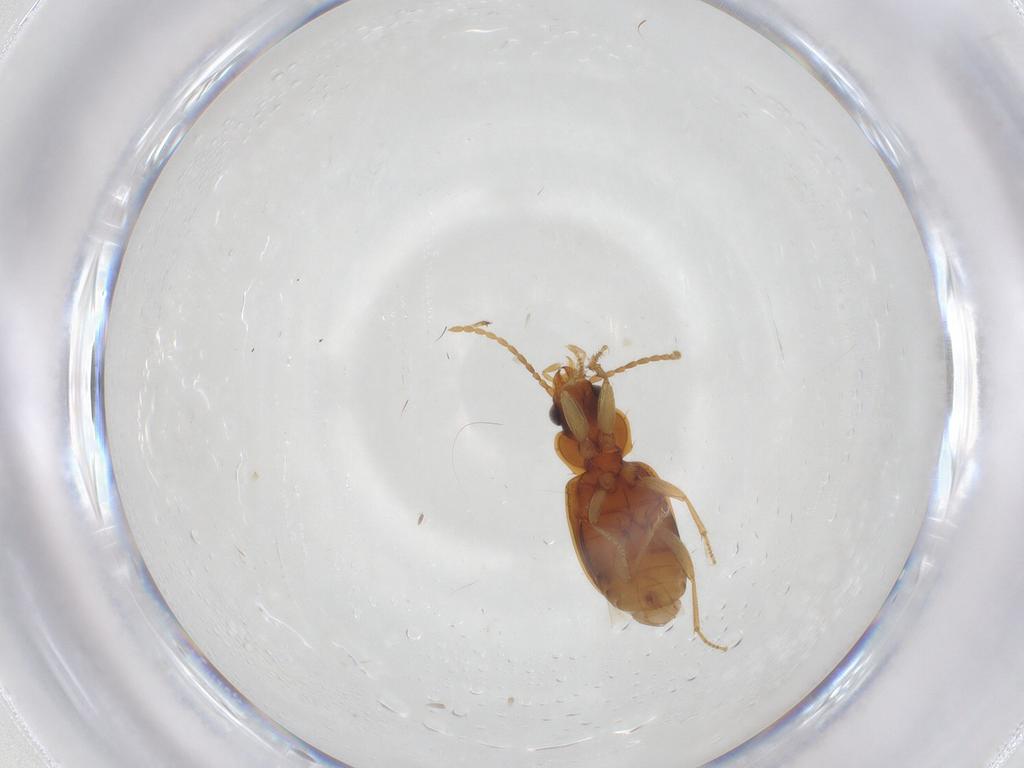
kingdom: Animalia
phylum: Arthropoda
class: Insecta
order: Coleoptera
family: Carabidae
